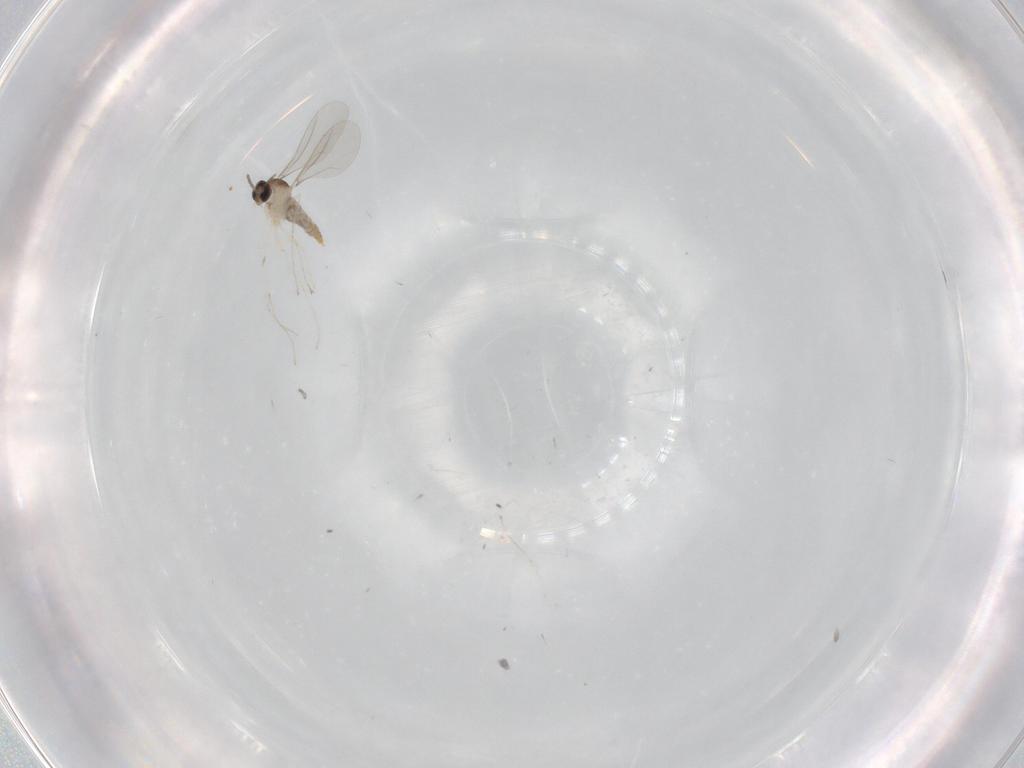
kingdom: Animalia
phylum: Arthropoda
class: Insecta
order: Diptera
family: Chironomidae
